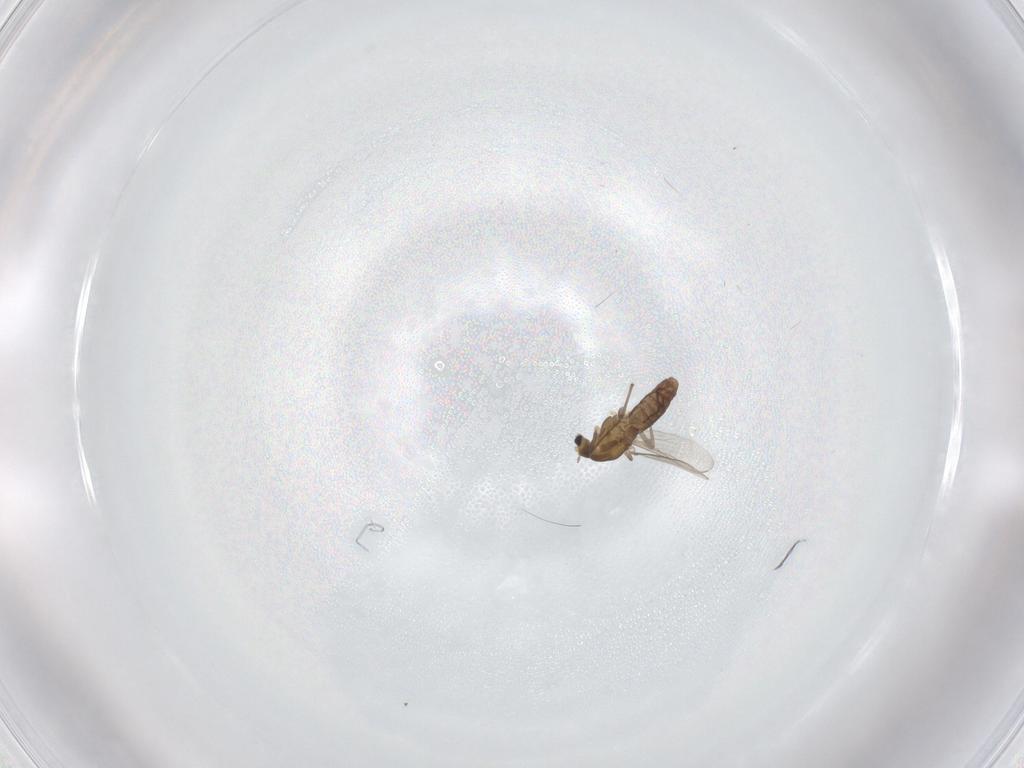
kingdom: Animalia
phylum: Arthropoda
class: Insecta
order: Diptera
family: Chironomidae
